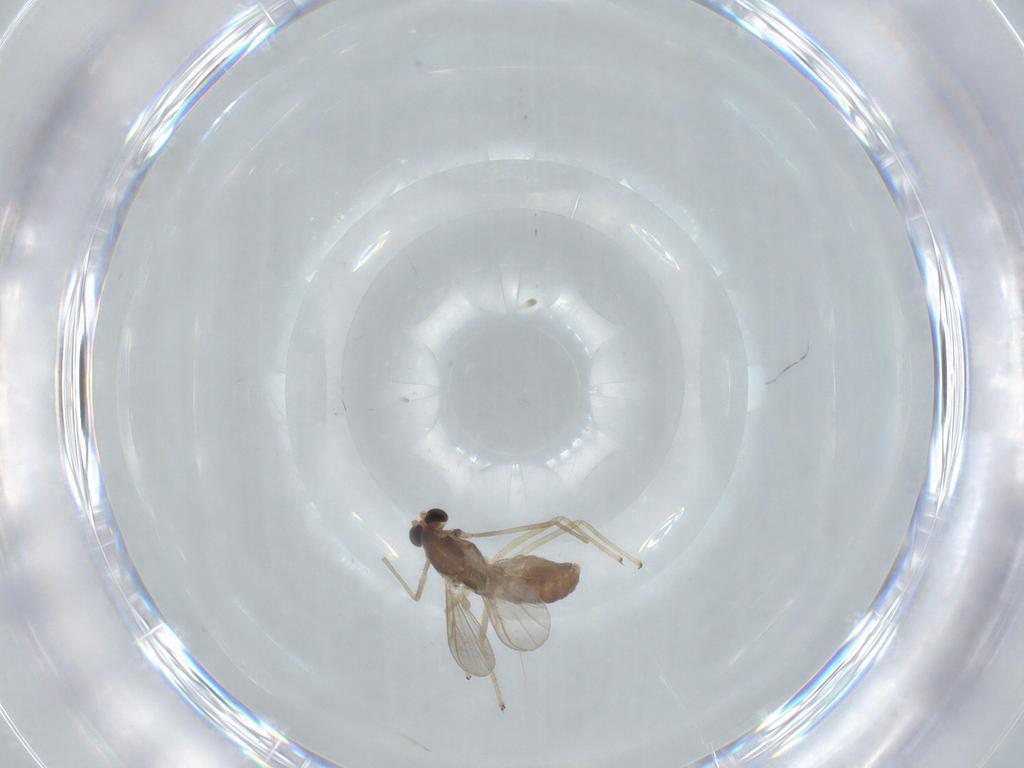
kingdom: Animalia
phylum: Arthropoda
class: Insecta
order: Diptera
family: Chironomidae
